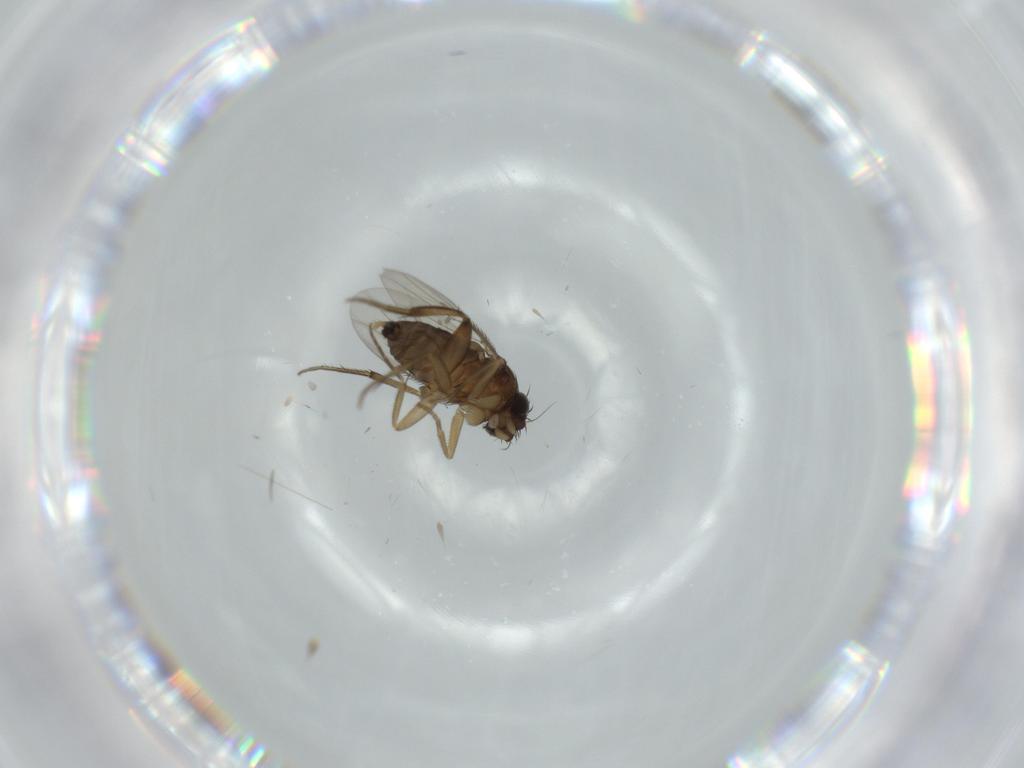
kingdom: Animalia
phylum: Arthropoda
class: Insecta
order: Diptera
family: Phoridae
